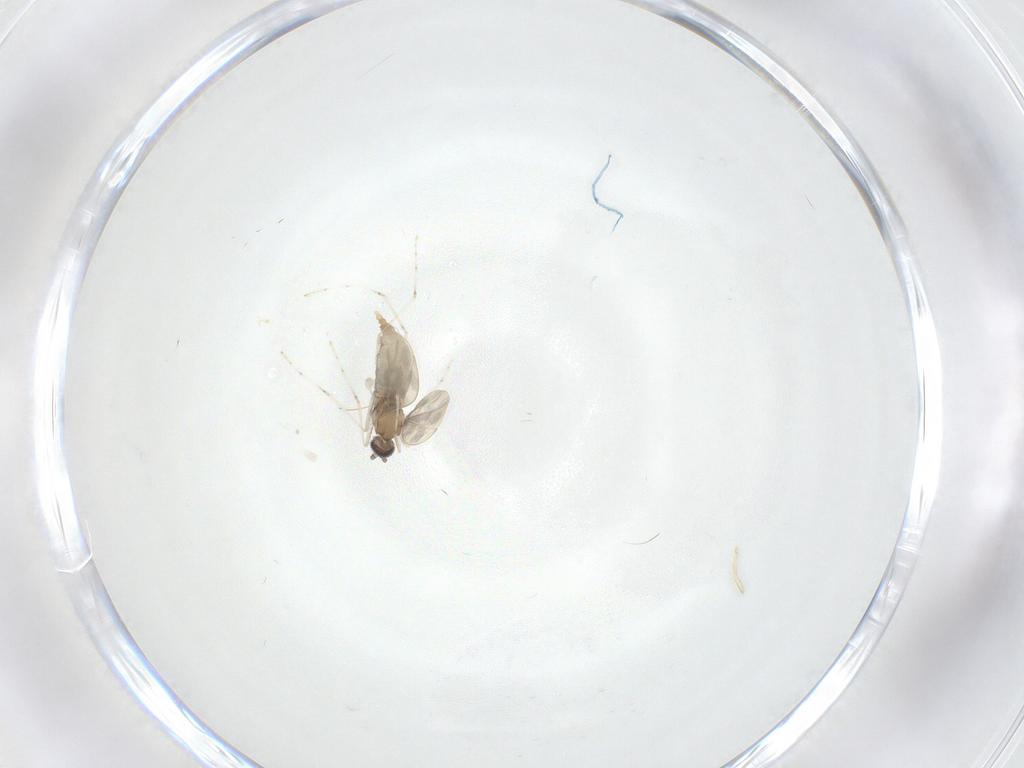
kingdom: Animalia
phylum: Arthropoda
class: Insecta
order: Diptera
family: Cecidomyiidae
